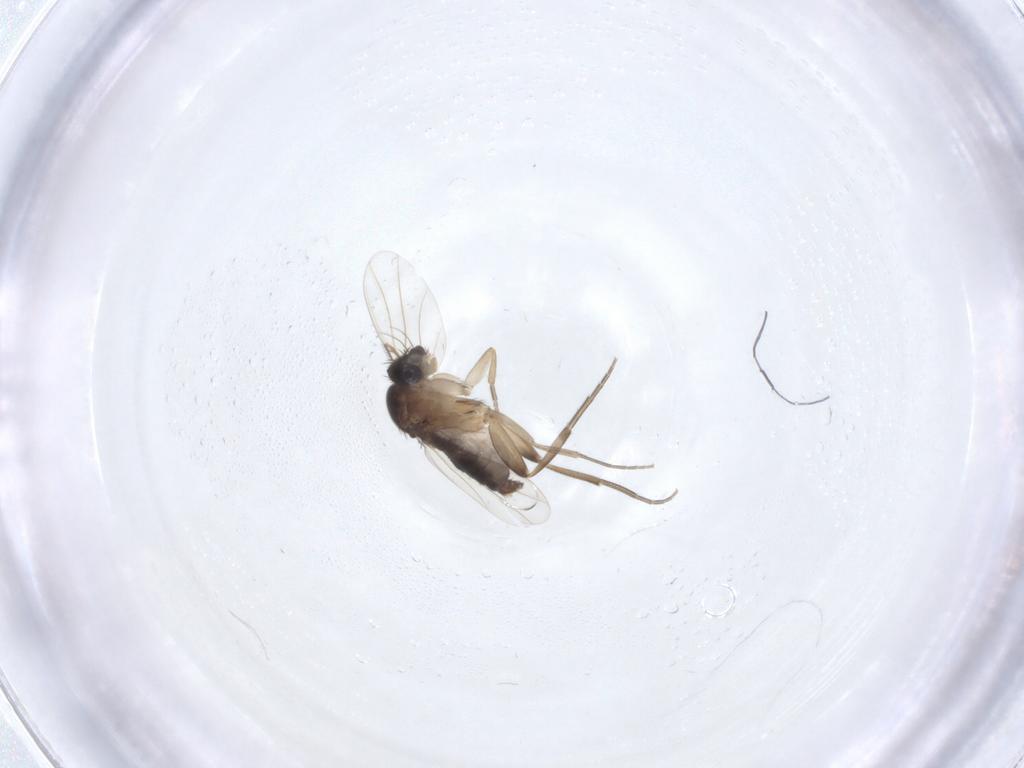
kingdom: Animalia
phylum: Arthropoda
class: Insecta
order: Diptera
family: Phoridae
